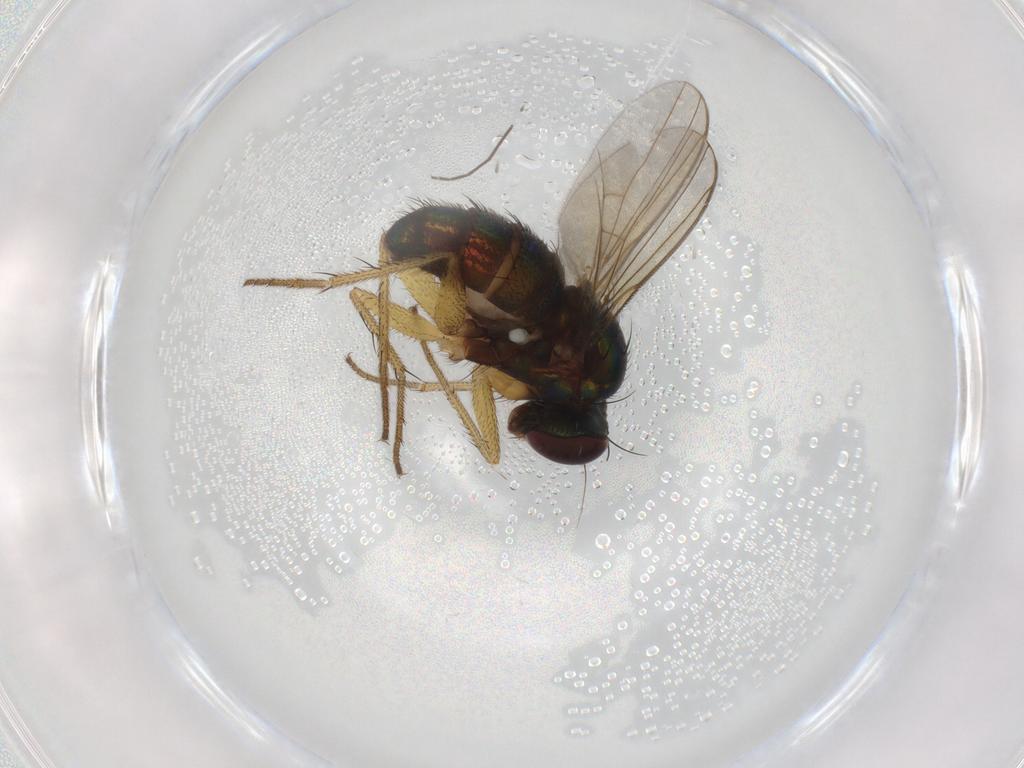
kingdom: Animalia
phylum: Arthropoda
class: Insecta
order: Diptera
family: Dolichopodidae
